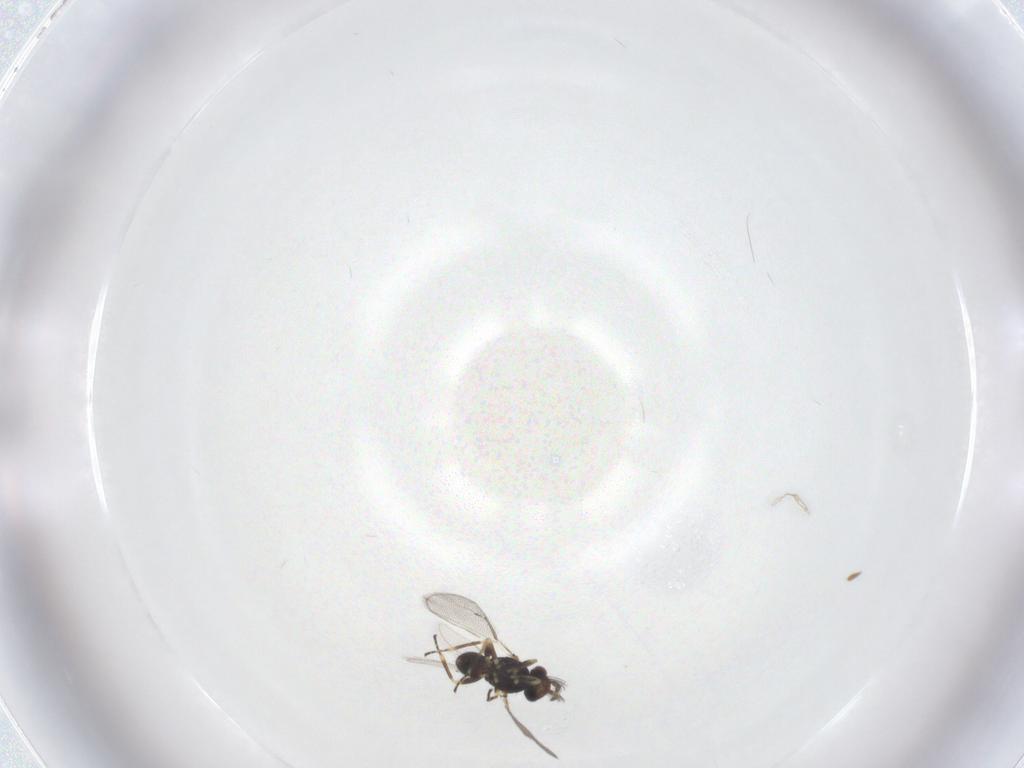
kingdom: Animalia
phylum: Arthropoda
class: Insecta
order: Hymenoptera
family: Eulophidae
